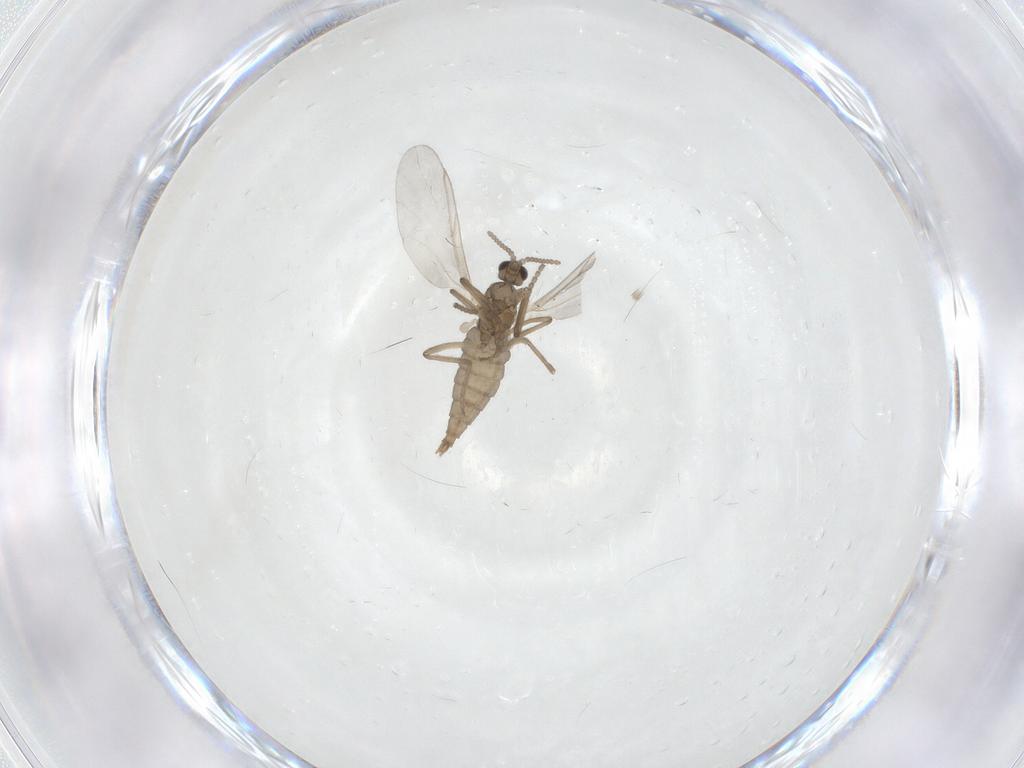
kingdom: Animalia
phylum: Arthropoda
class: Insecta
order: Diptera
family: Cecidomyiidae
